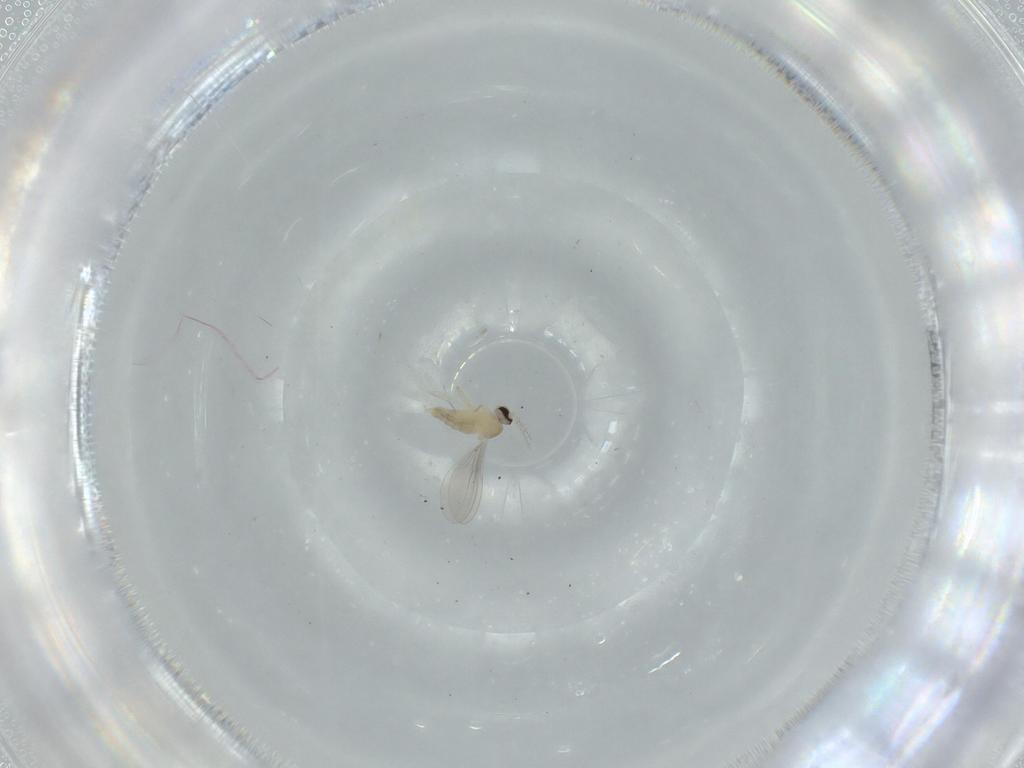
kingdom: Animalia
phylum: Arthropoda
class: Insecta
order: Diptera
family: Cecidomyiidae
